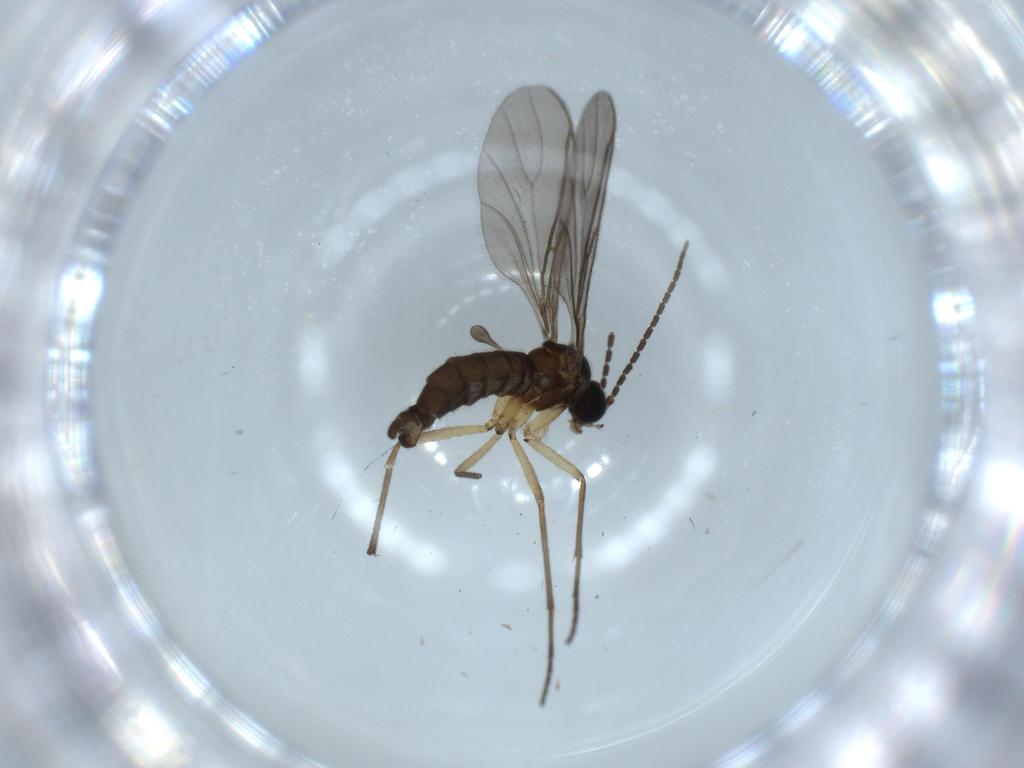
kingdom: Animalia
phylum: Arthropoda
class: Insecta
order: Diptera
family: Sciaridae
